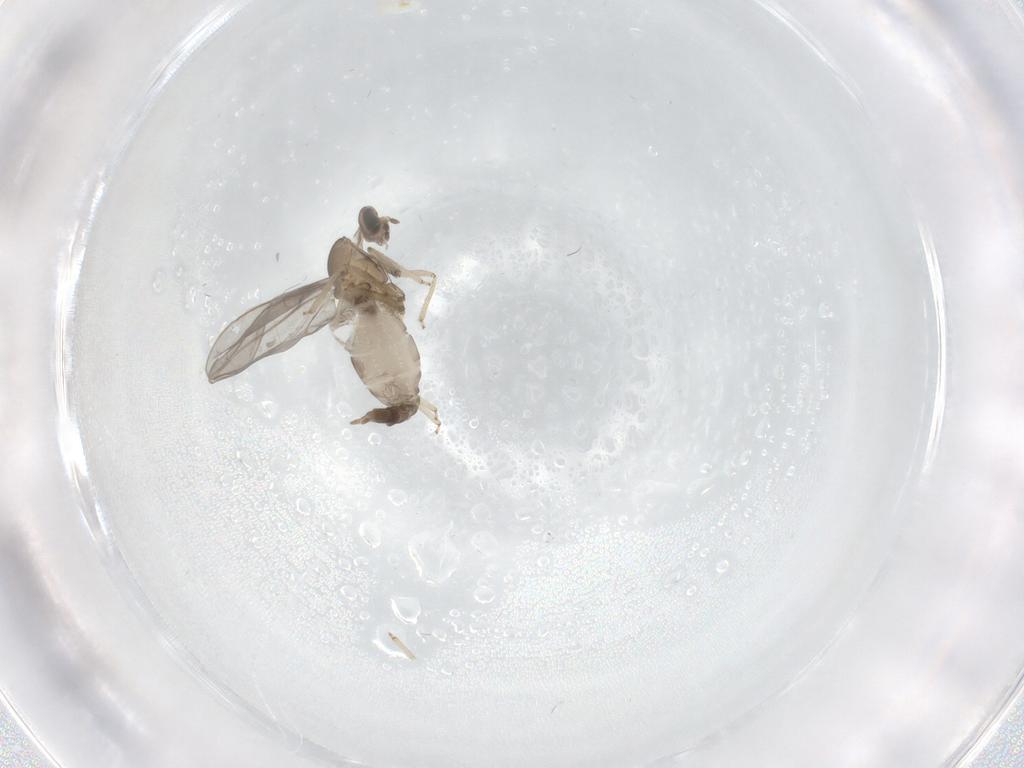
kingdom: Animalia
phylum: Arthropoda
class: Insecta
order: Diptera
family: Cecidomyiidae
